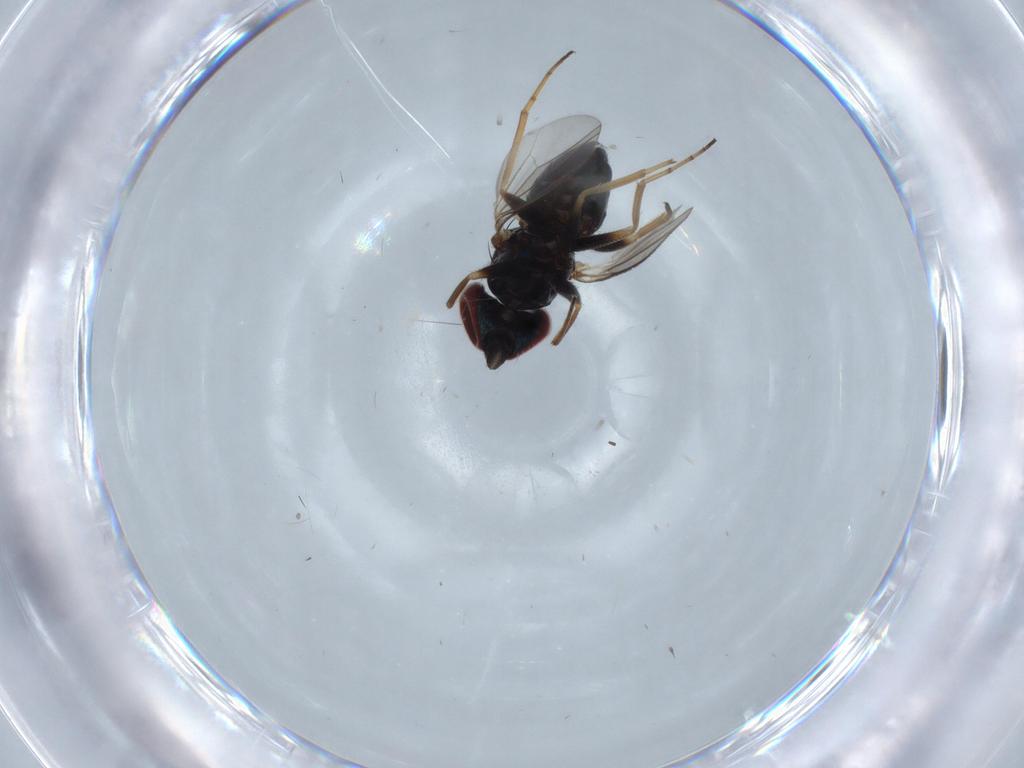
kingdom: Animalia
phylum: Arthropoda
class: Insecta
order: Diptera
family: Dolichopodidae
